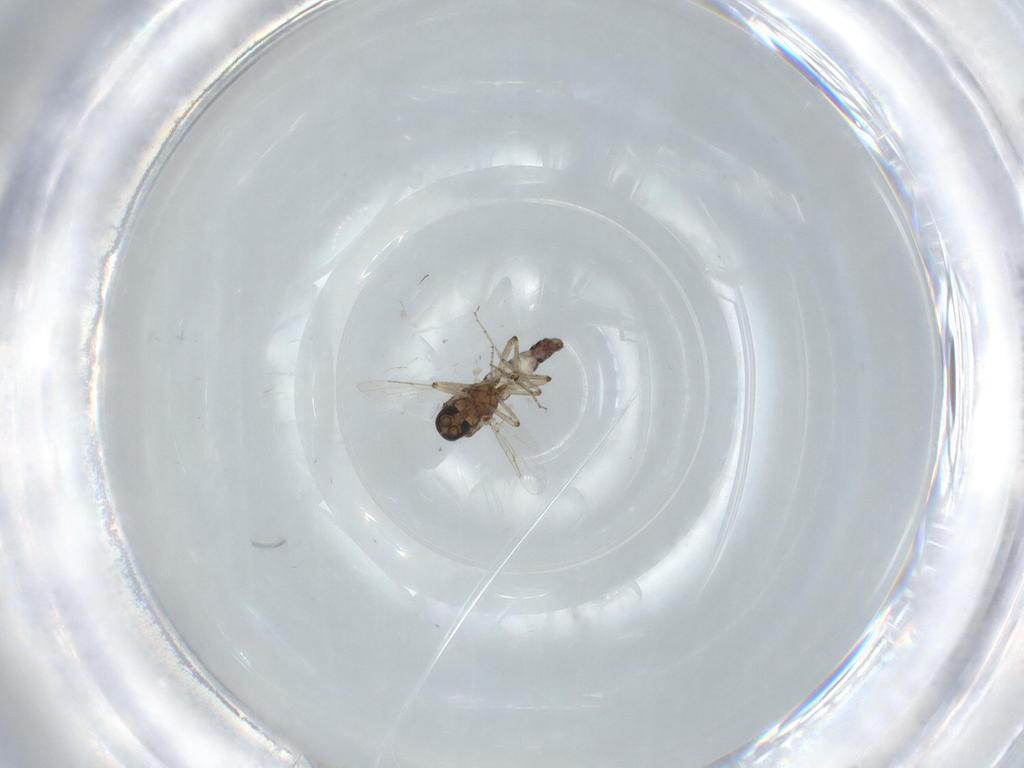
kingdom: Animalia
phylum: Arthropoda
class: Insecta
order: Diptera
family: Ceratopogonidae
